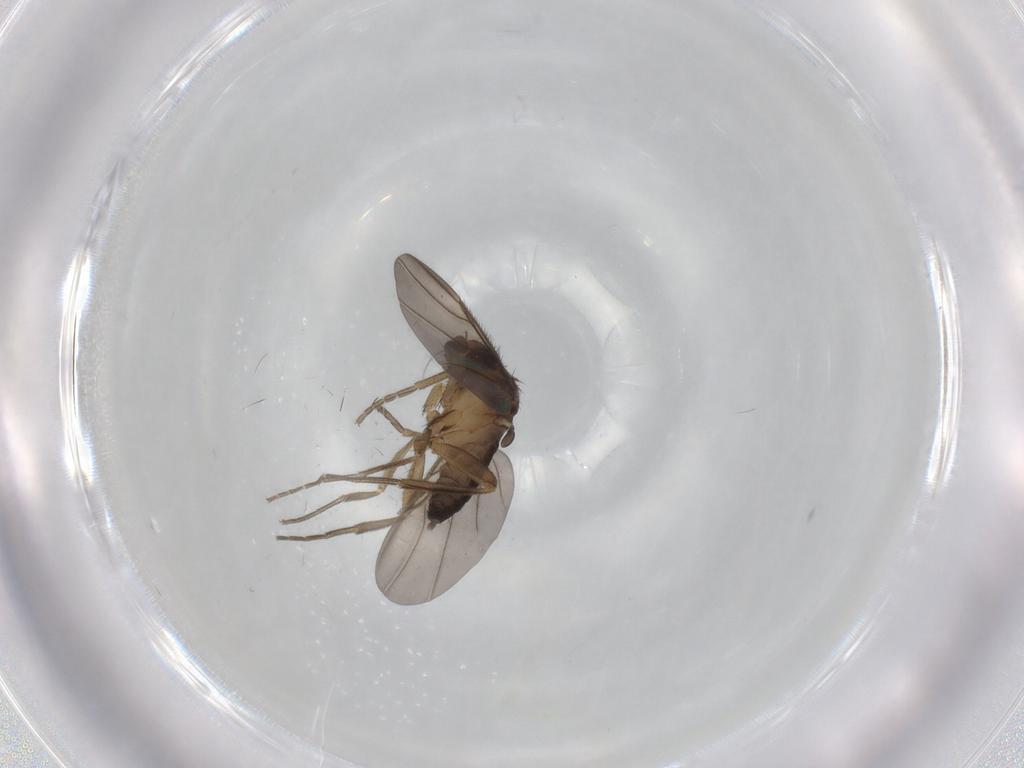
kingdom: Animalia
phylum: Arthropoda
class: Insecta
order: Diptera
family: Phoridae
